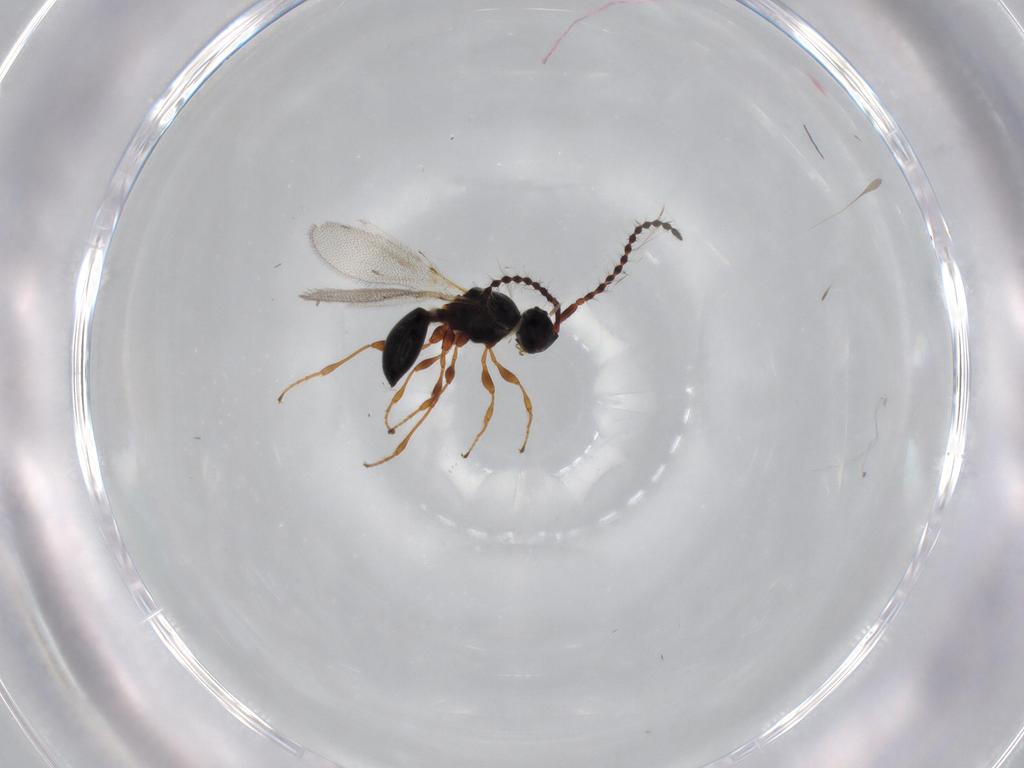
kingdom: Animalia
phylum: Arthropoda
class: Insecta
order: Hymenoptera
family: Diapriidae
